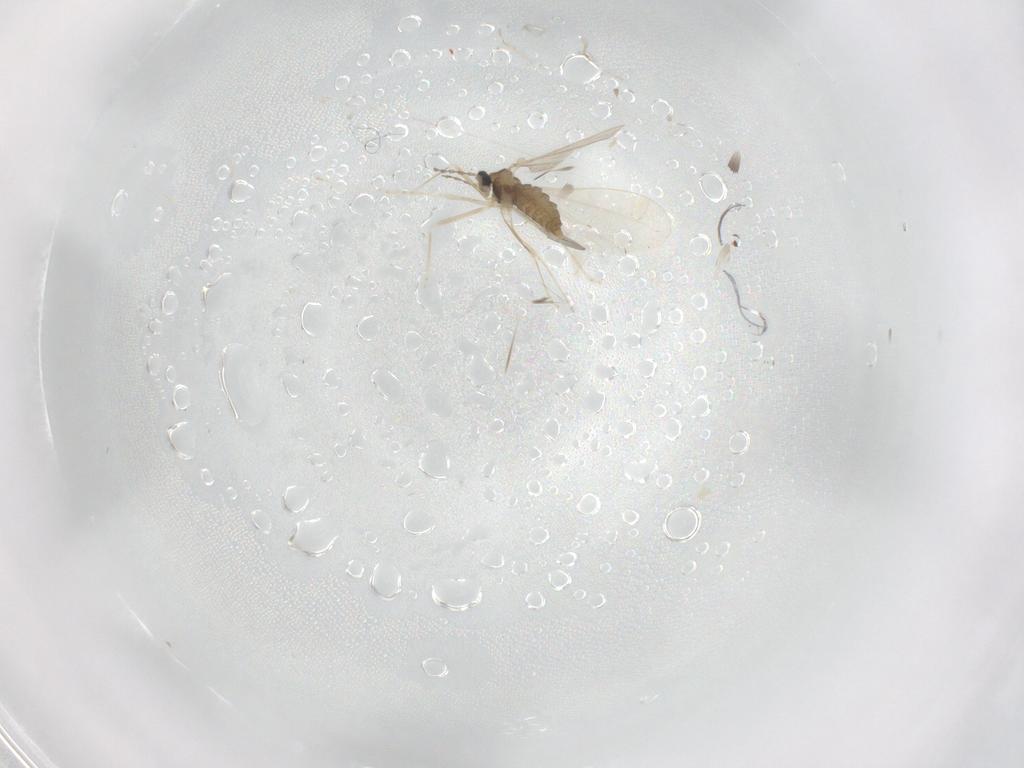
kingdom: Animalia
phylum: Arthropoda
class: Insecta
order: Diptera
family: Cecidomyiidae
